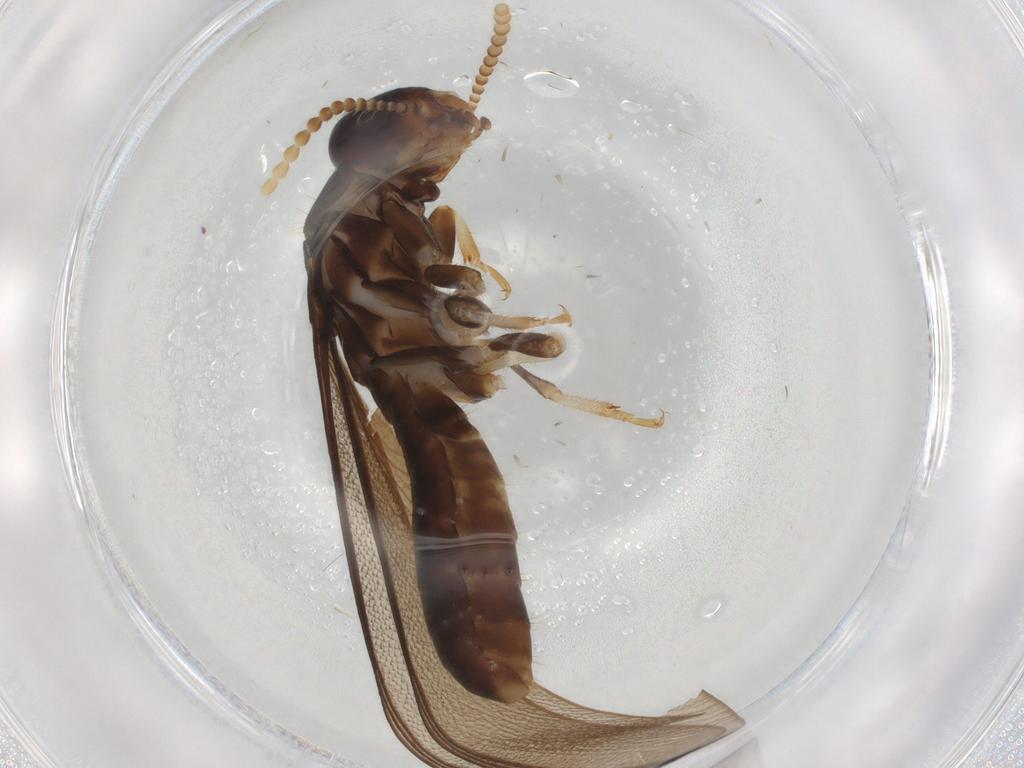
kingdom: Animalia
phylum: Arthropoda
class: Insecta
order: Blattodea
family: Kalotermitidae
